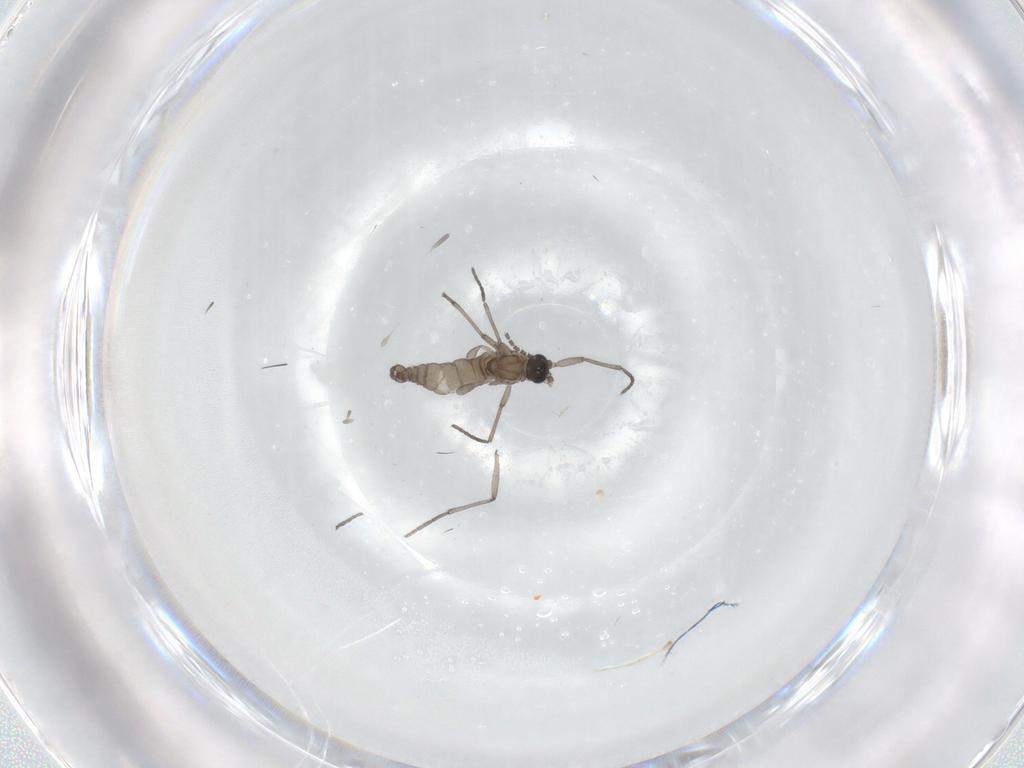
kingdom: Animalia
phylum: Arthropoda
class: Insecta
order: Diptera
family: Sciaridae
